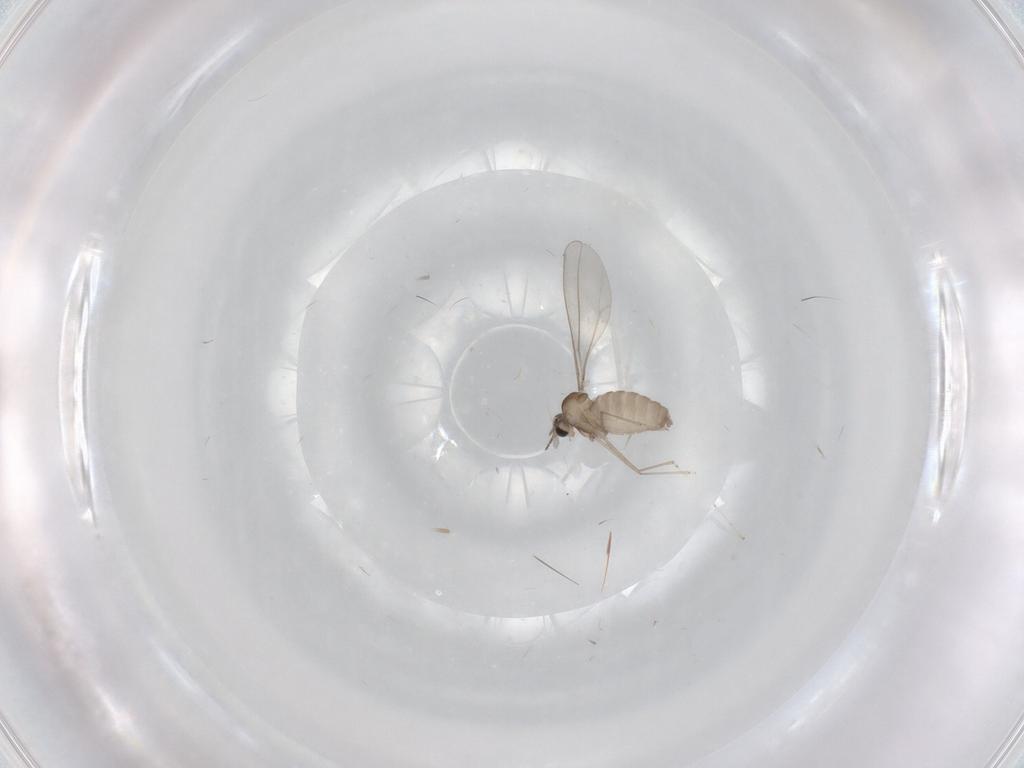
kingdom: Animalia
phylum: Arthropoda
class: Insecta
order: Diptera
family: Cecidomyiidae
